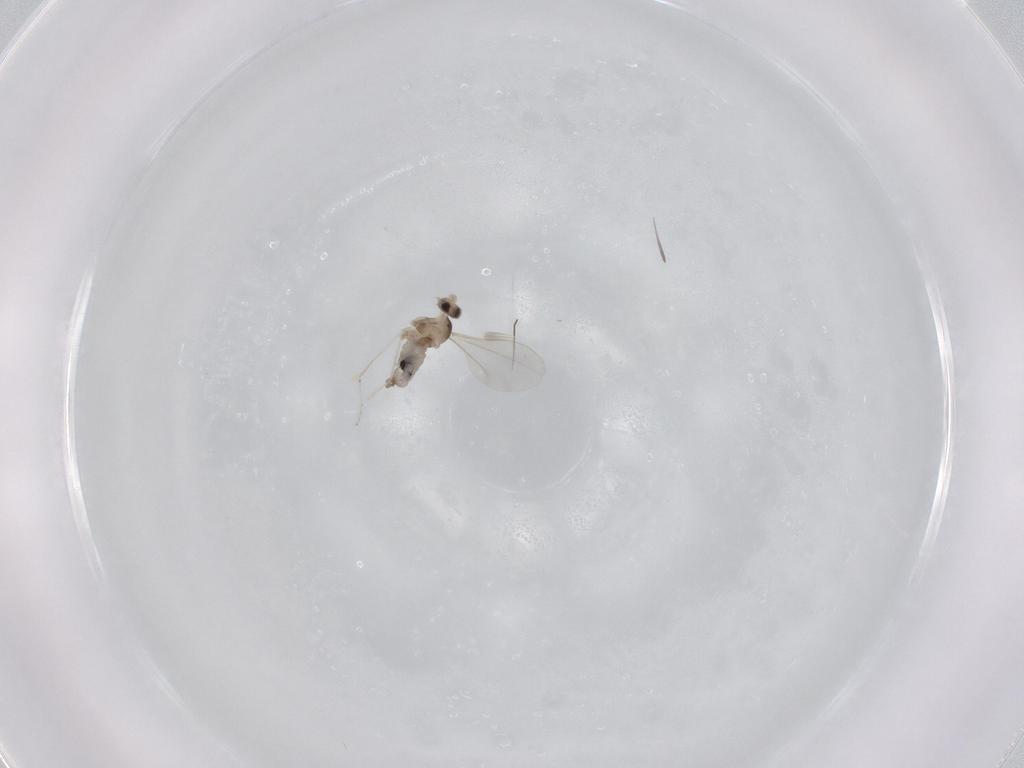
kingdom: Animalia
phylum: Arthropoda
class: Insecta
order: Diptera
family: Cecidomyiidae
